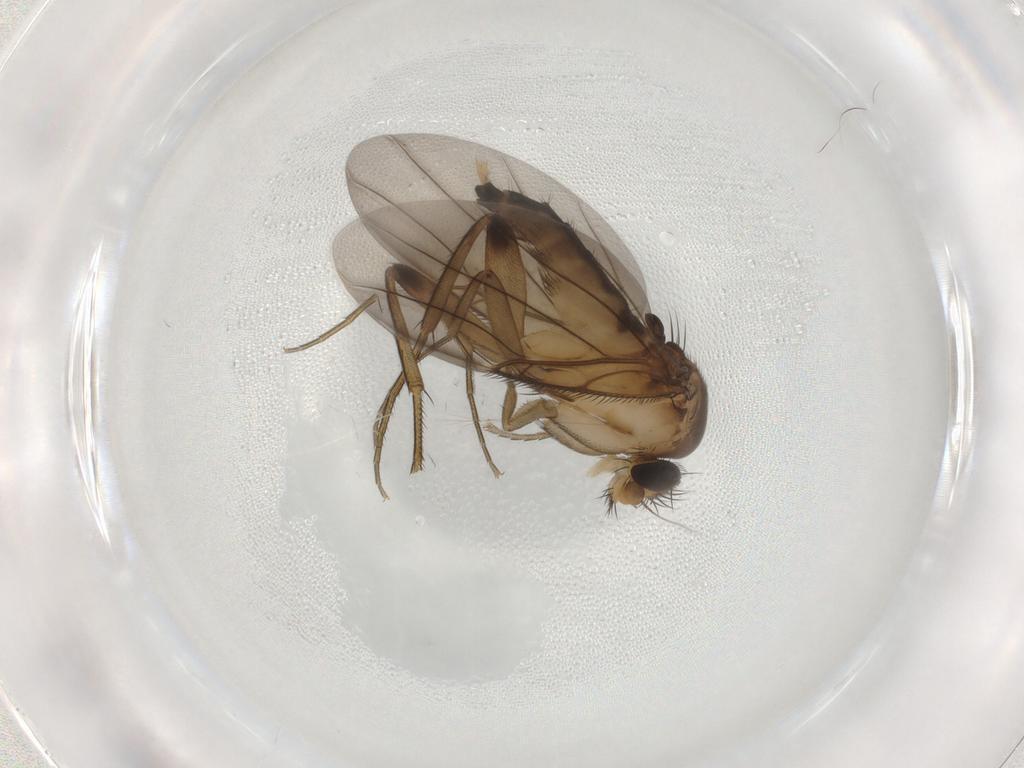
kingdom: Animalia
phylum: Arthropoda
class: Insecta
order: Diptera
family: Phoridae
